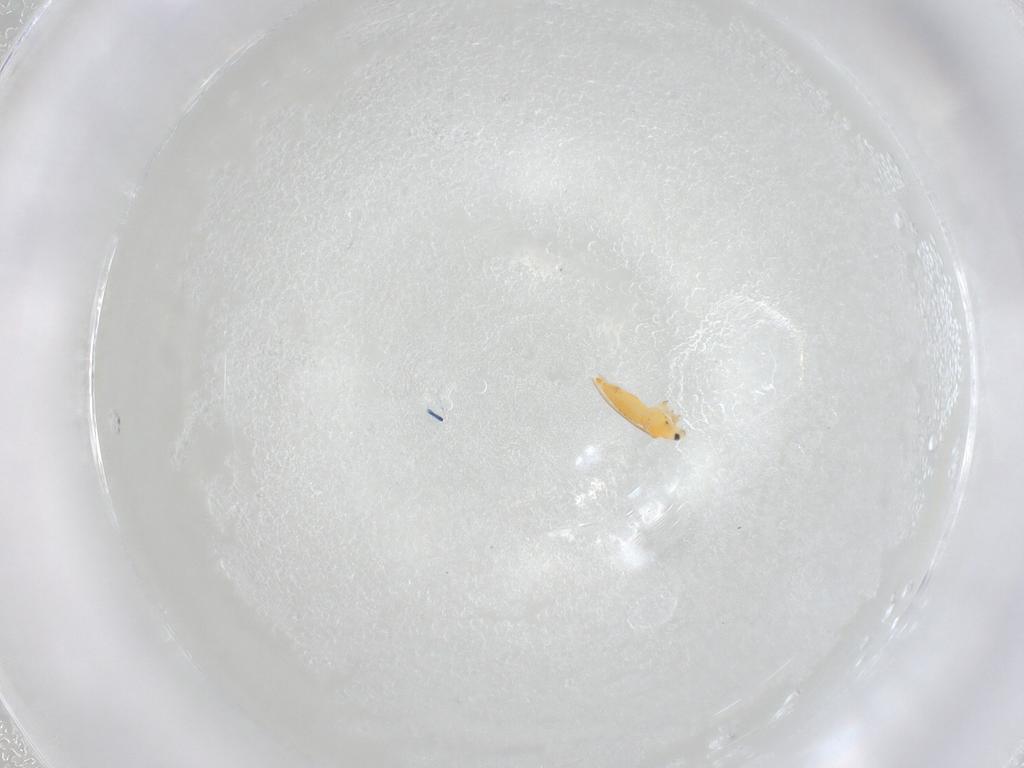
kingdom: Animalia
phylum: Arthropoda
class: Insecta
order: Thysanoptera
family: Thripidae
